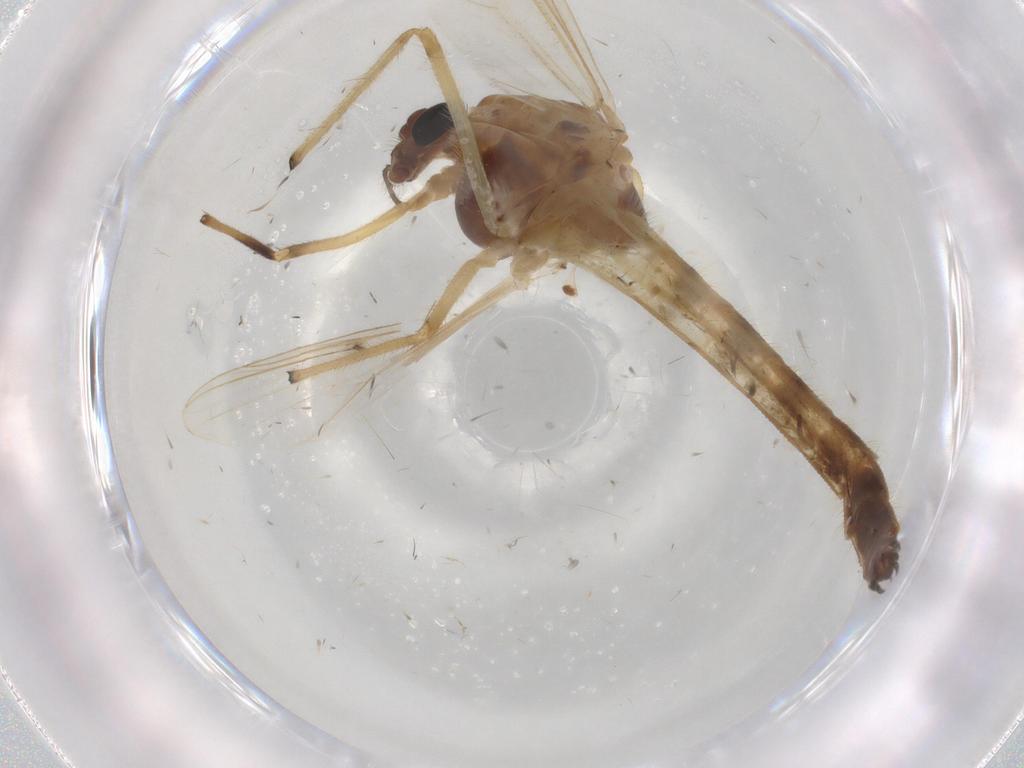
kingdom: Animalia
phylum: Arthropoda
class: Insecta
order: Diptera
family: Chironomidae
